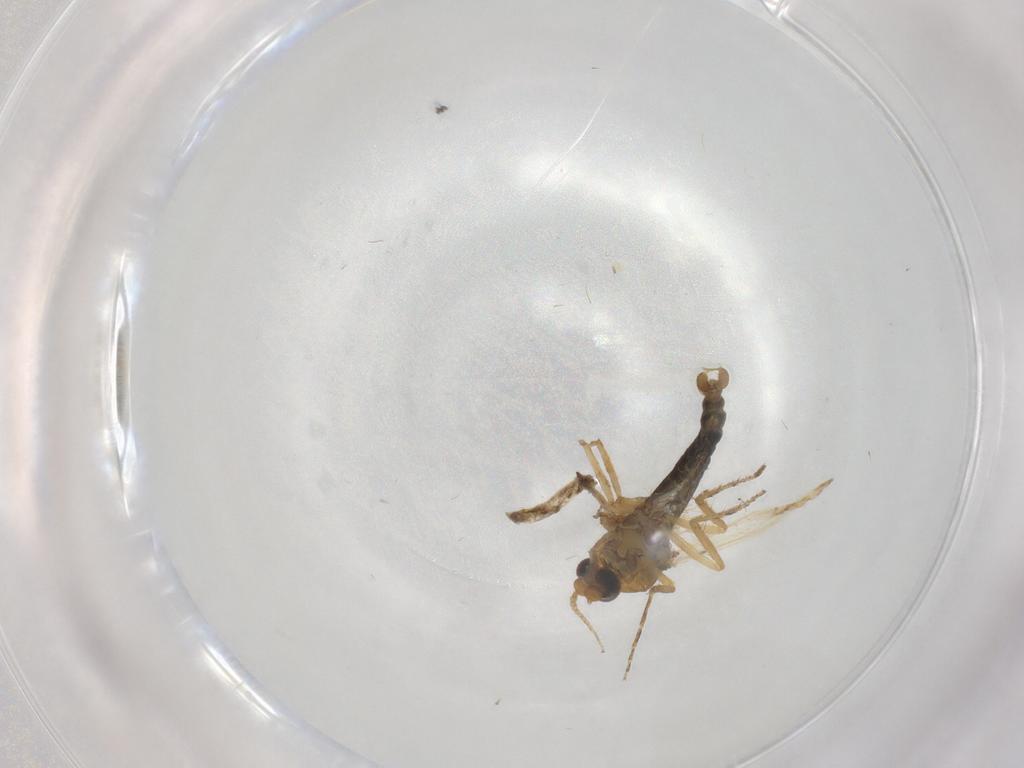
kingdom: Animalia
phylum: Arthropoda
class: Insecta
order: Diptera
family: Ceratopogonidae
